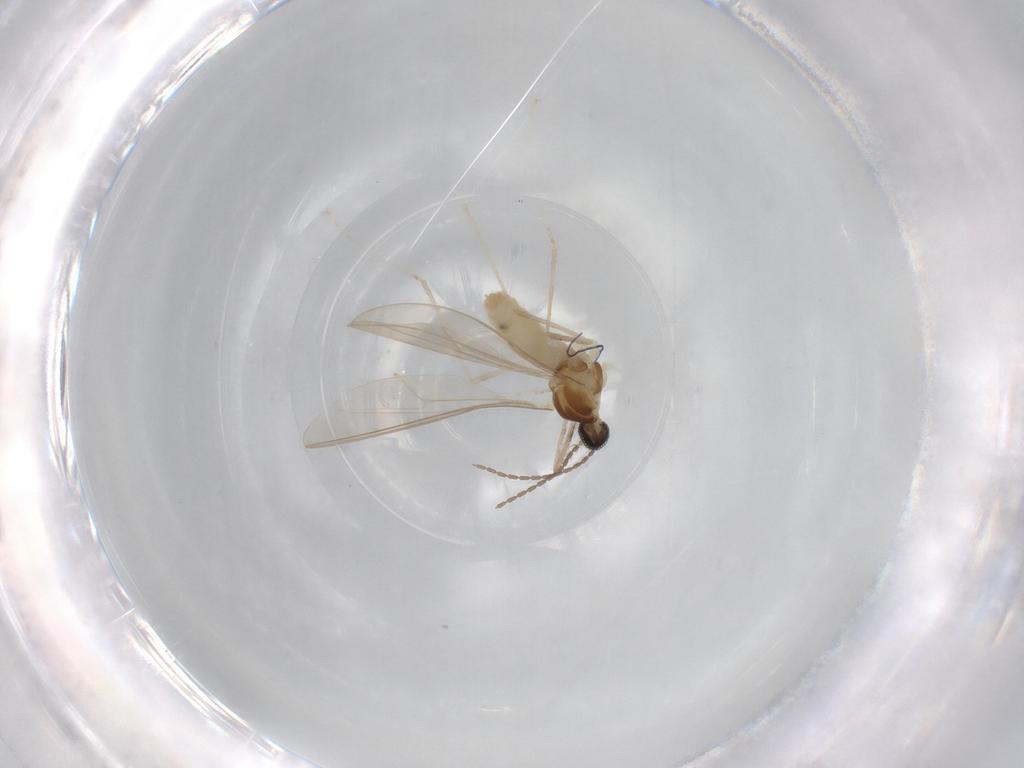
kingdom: Animalia
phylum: Arthropoda
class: Insecta
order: Diptera
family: Cecidomyiidae
